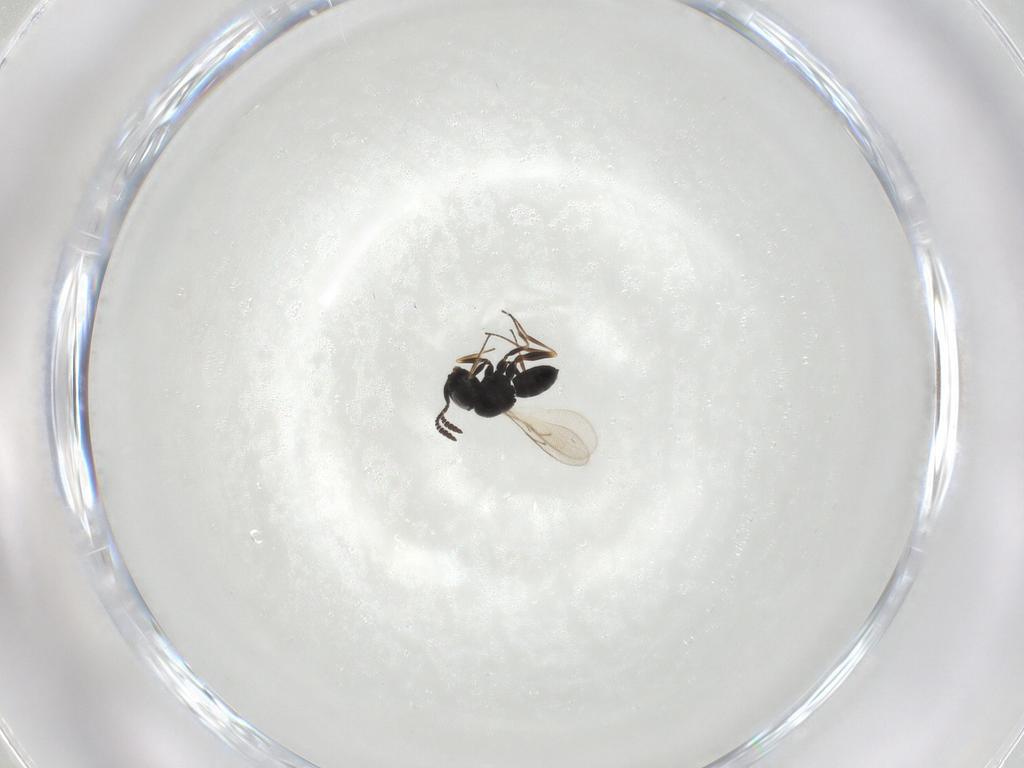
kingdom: Animalia
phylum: Arthropoda
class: Insecta
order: Hymenoptera
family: Scelionidae
